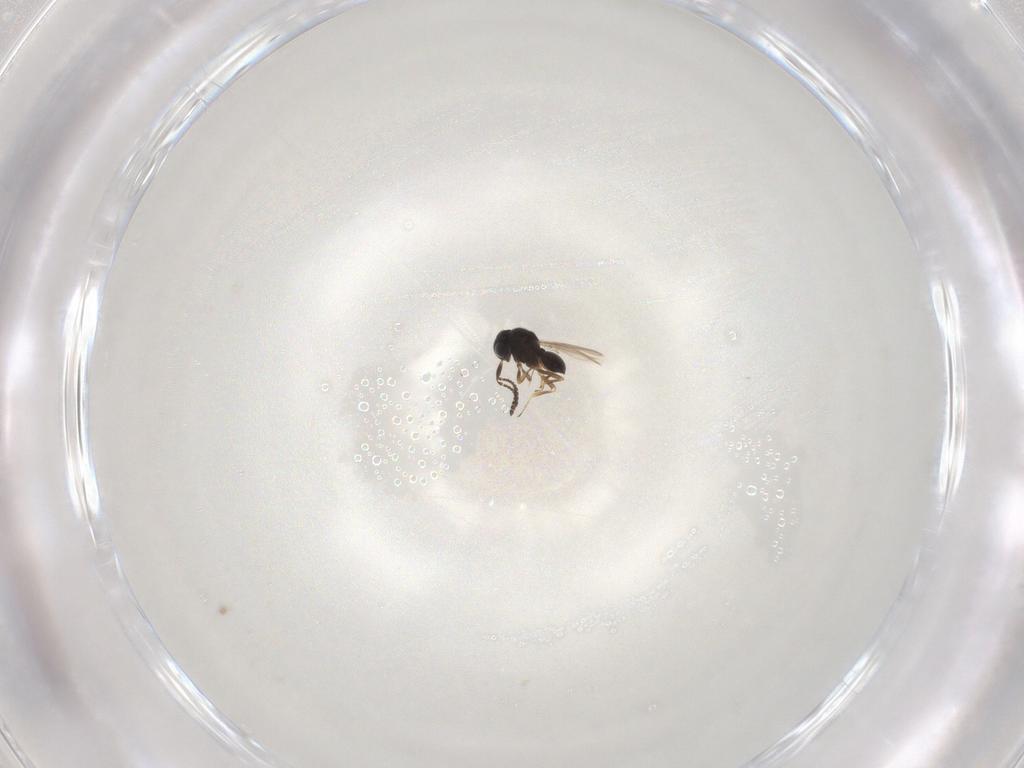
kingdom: Animalia
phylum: Arthropoda
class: Insecta
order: Hymenoptera
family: Scelionidae
